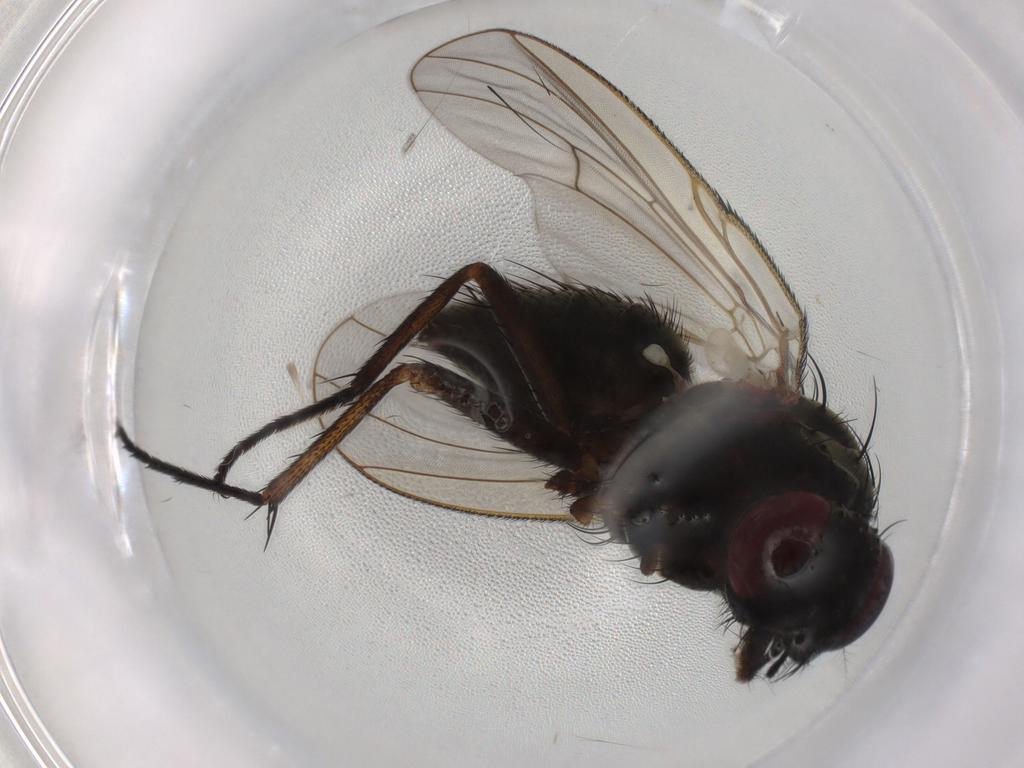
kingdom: Animalia
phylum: Arthropoda
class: Insecta
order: Diptera
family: Muscidae
